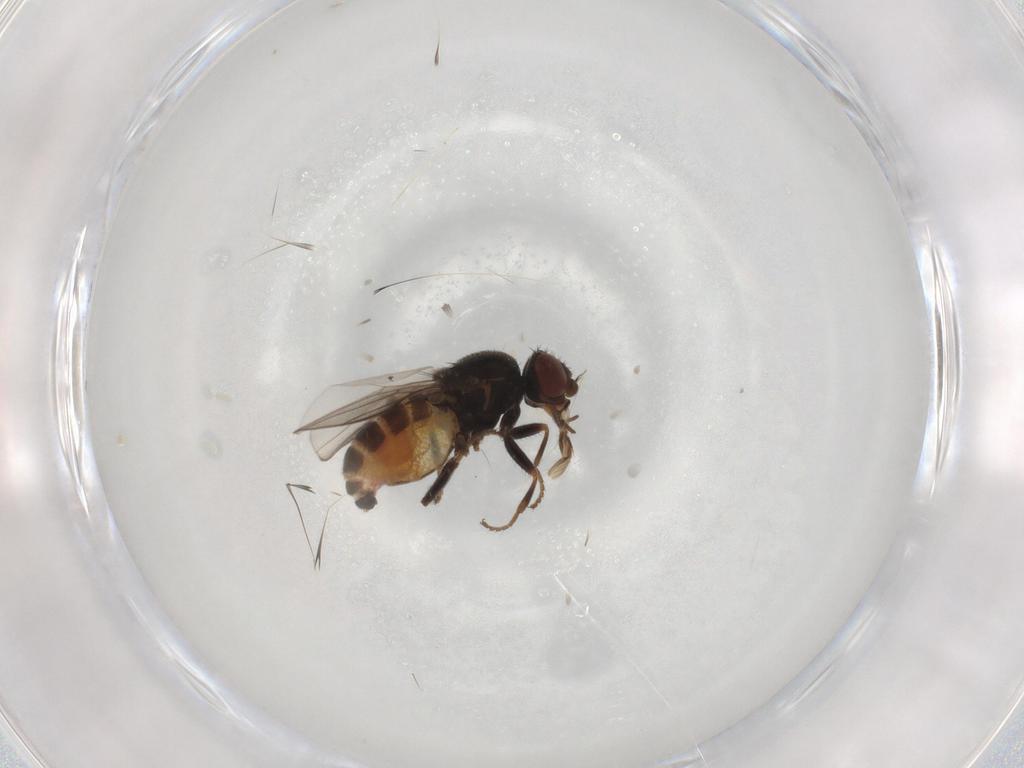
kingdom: Animalia
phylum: Arthropoda
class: Insecta
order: Diptera
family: Chloropidae
